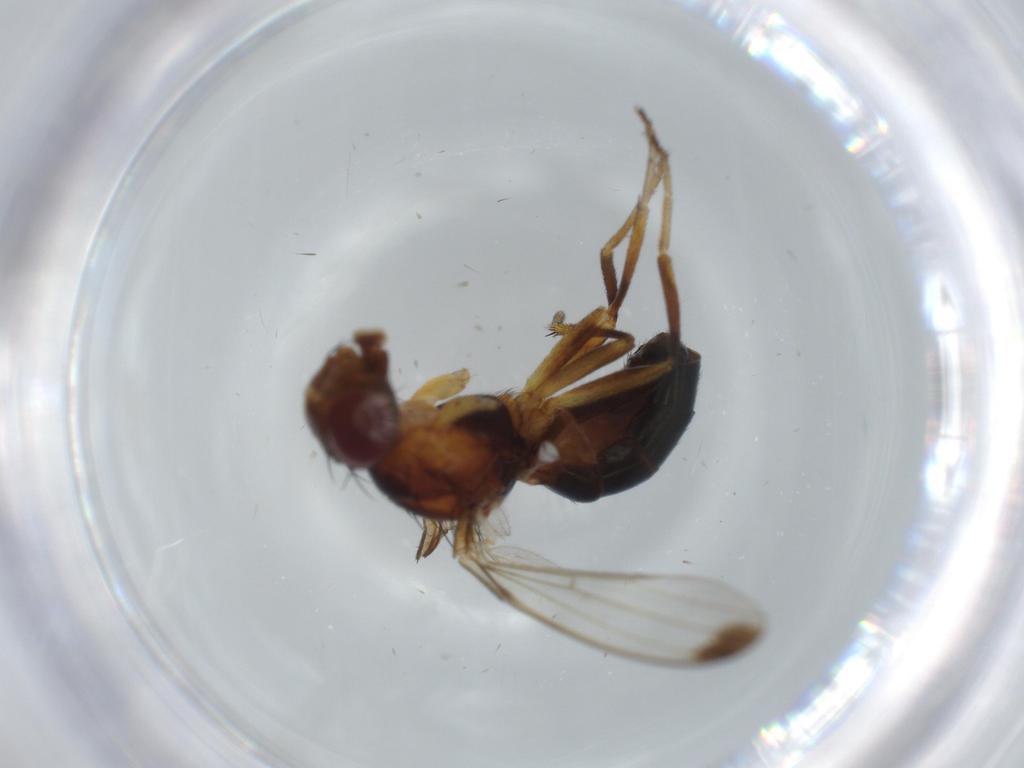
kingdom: Animalia
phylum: Arthropoda
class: Insecta
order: Diptera
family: Piophilidae
